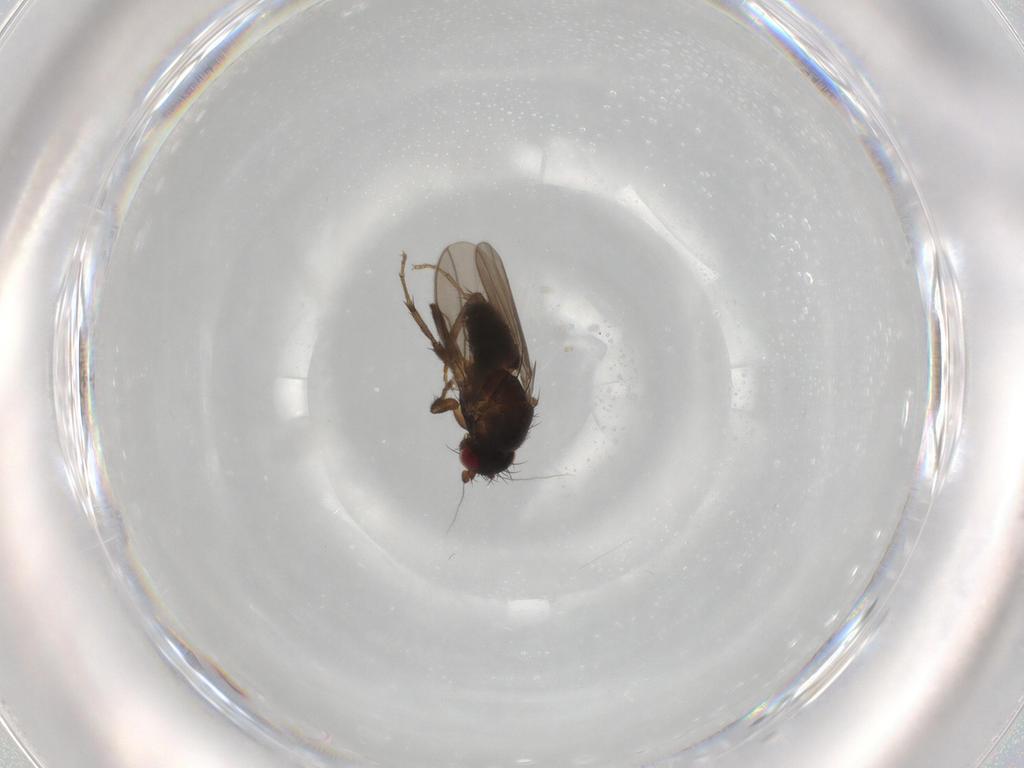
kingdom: Animalia
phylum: Arthropoda
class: Insecta
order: Diptera
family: Sphaeroceridae
